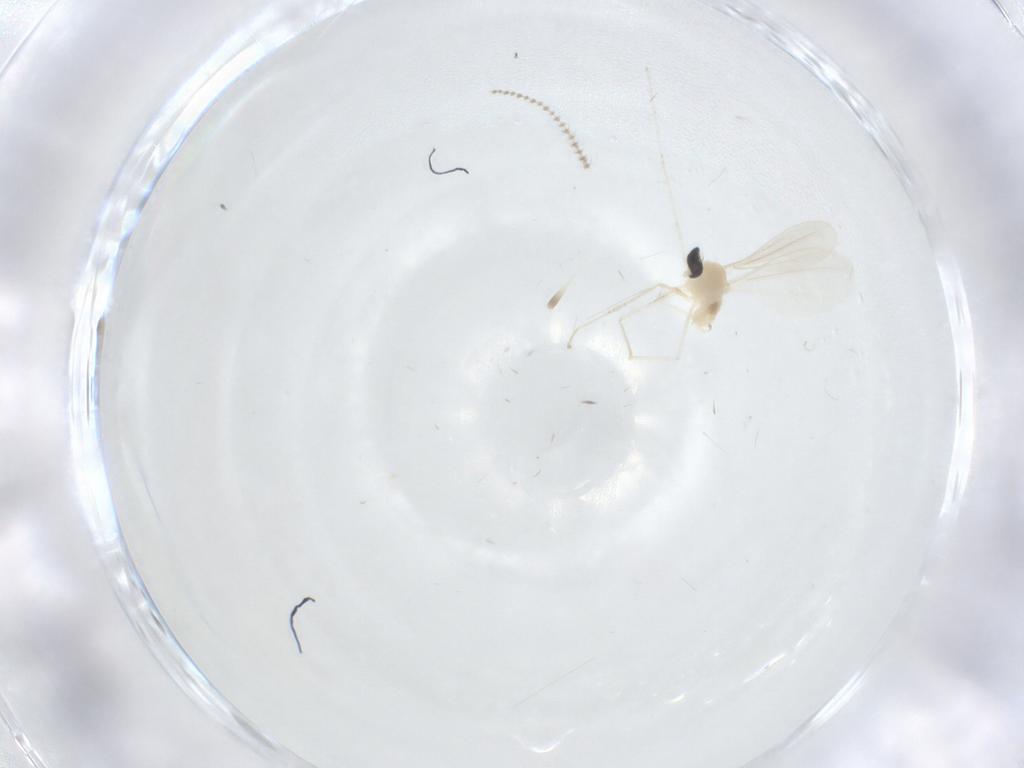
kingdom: Animalia
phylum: Arthropoda
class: Insecta
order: Diptera
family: Cecidomyiidae
